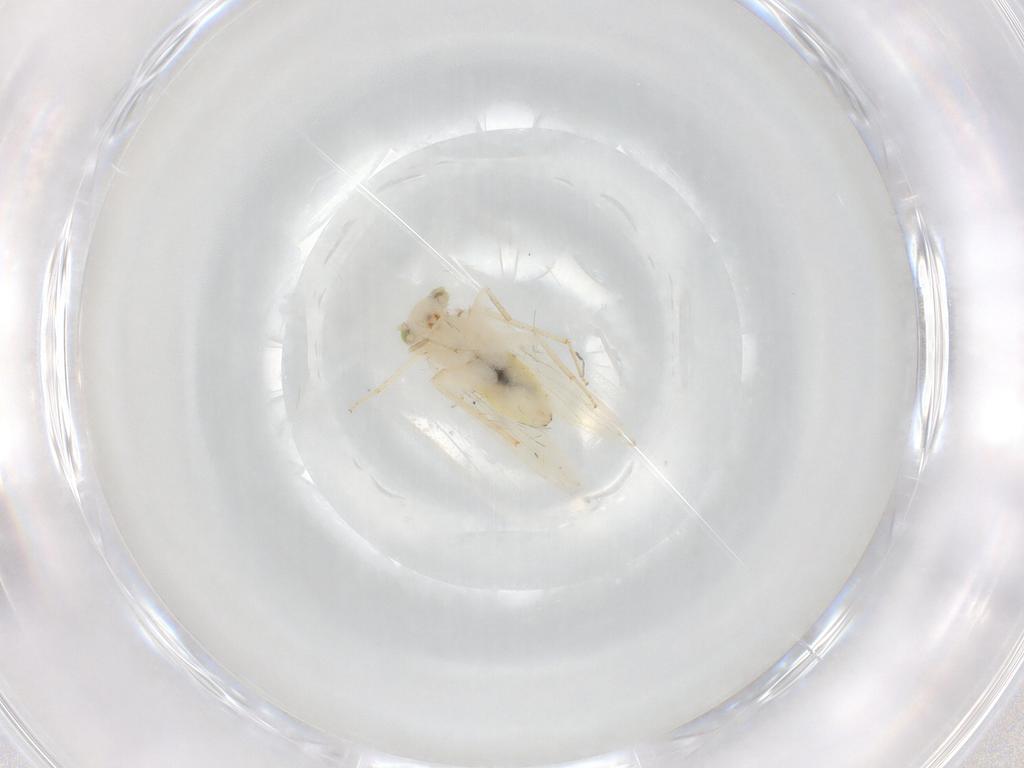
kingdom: Animalia
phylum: Arthropoda
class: Insecta
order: Psocodea
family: Lepidopsocidae
